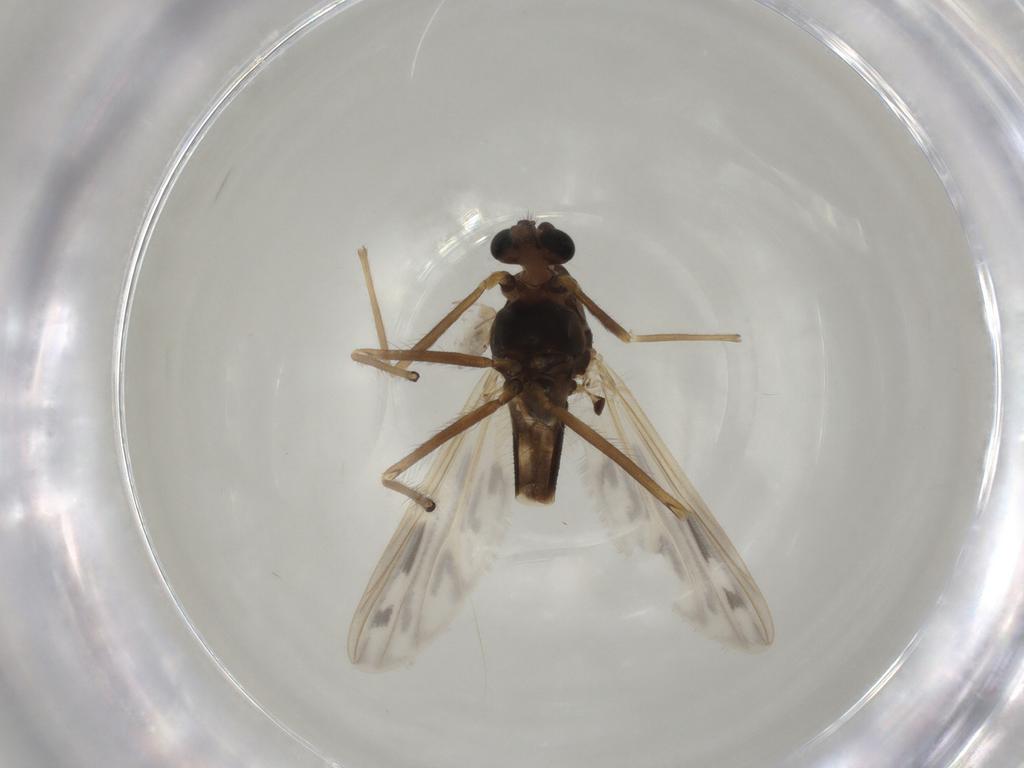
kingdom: Animalia
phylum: Arthropoda
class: Insecta
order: Diptera
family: Chironomidae
